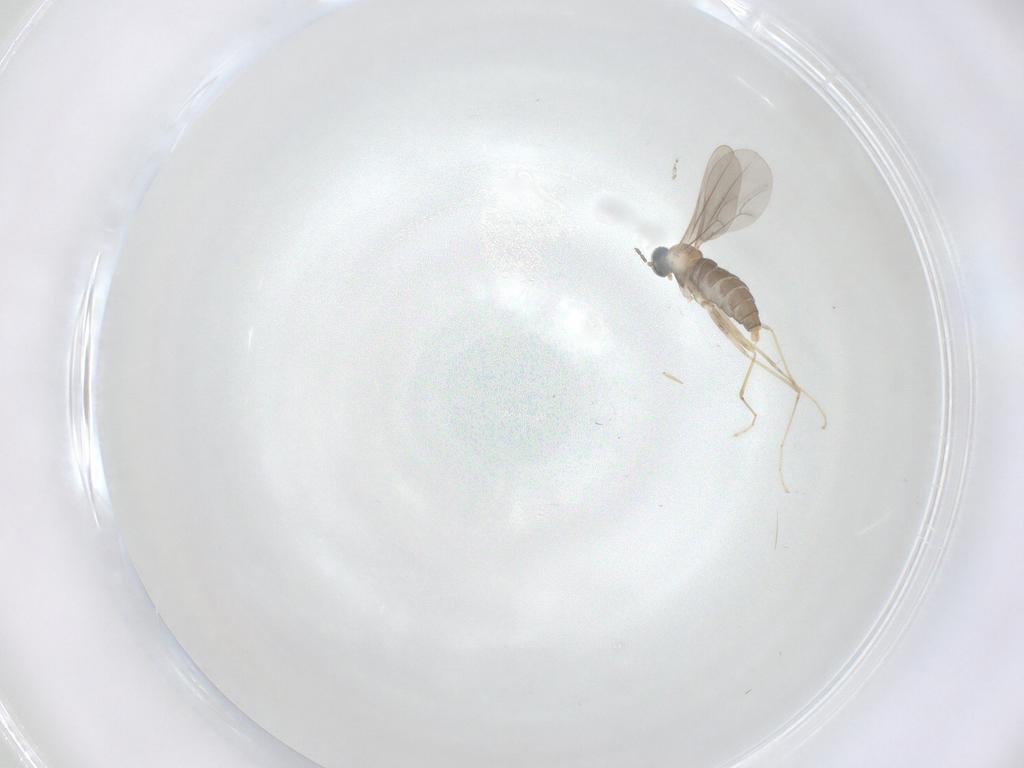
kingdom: Animalia
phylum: Arthropoda
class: Insecta
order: Diptera
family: Cecidomyiidae
